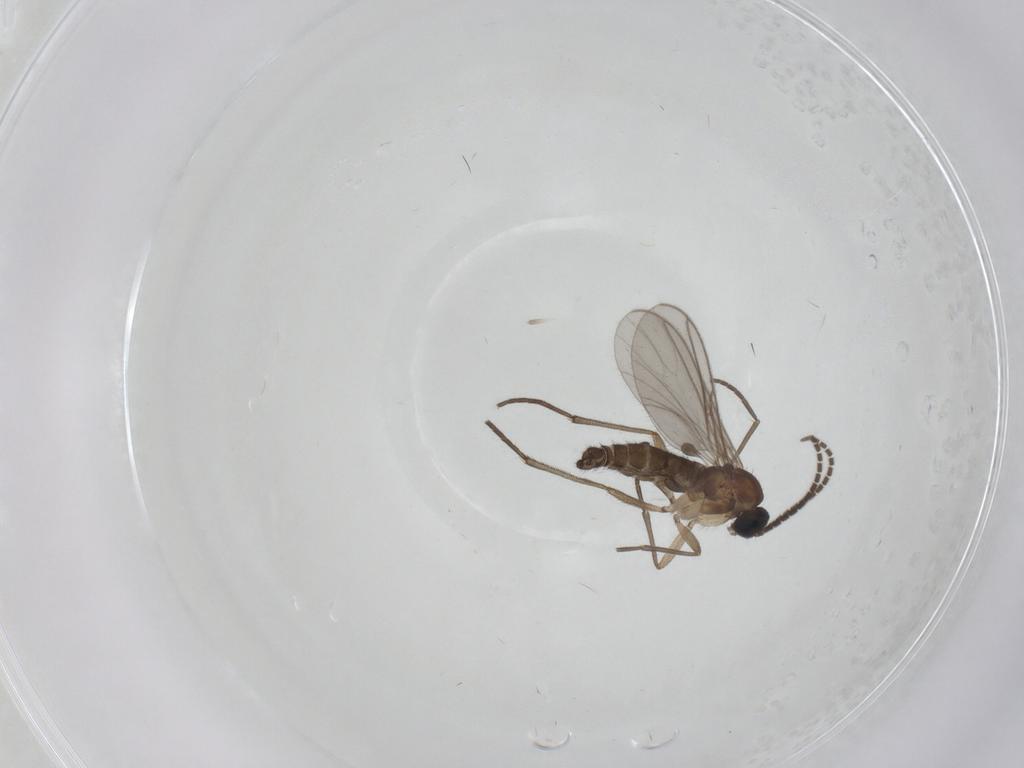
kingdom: Animalia
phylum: Arthropoda
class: Insecta
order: Diptera
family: Sciaridae
